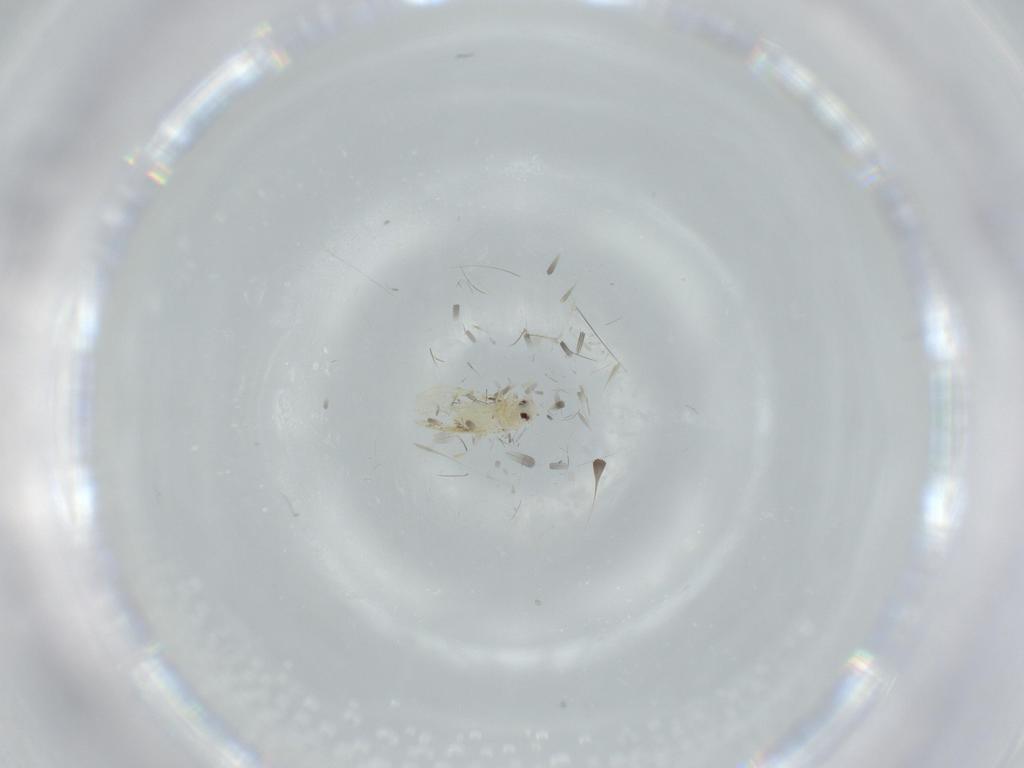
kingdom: Animalia
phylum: Arthropoda
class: Insecta
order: Hemiptera
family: Aleyrodidae
